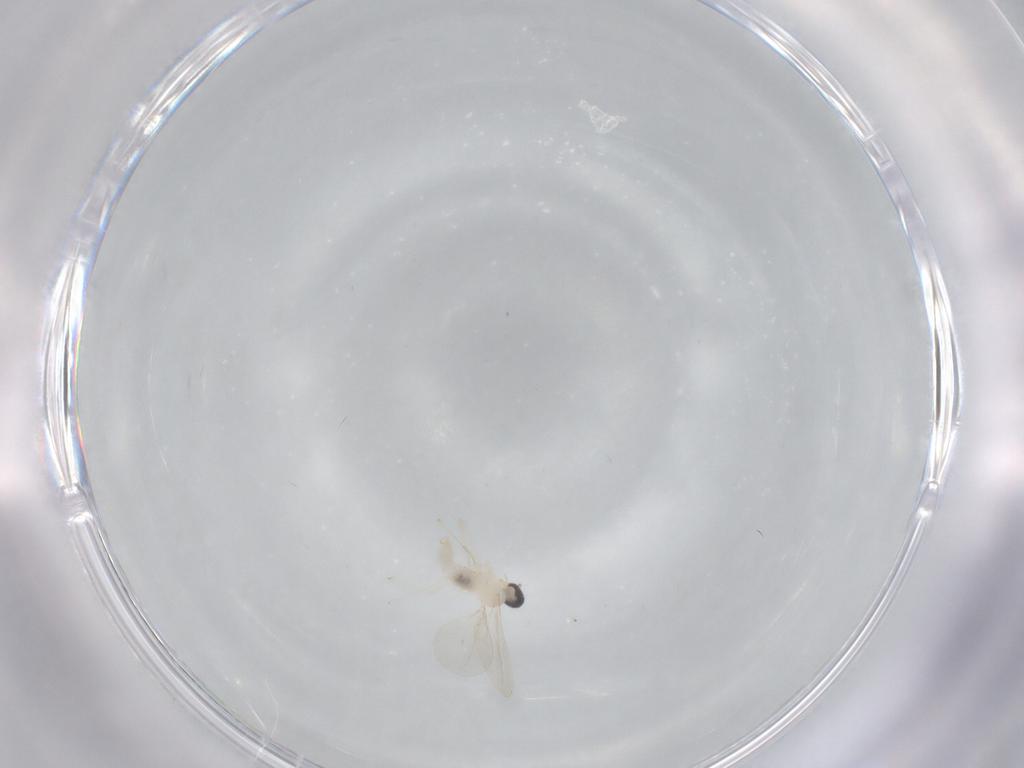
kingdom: Animalia
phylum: Arthropoda
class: Insecta
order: Diptera
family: Cecidomyiidae
